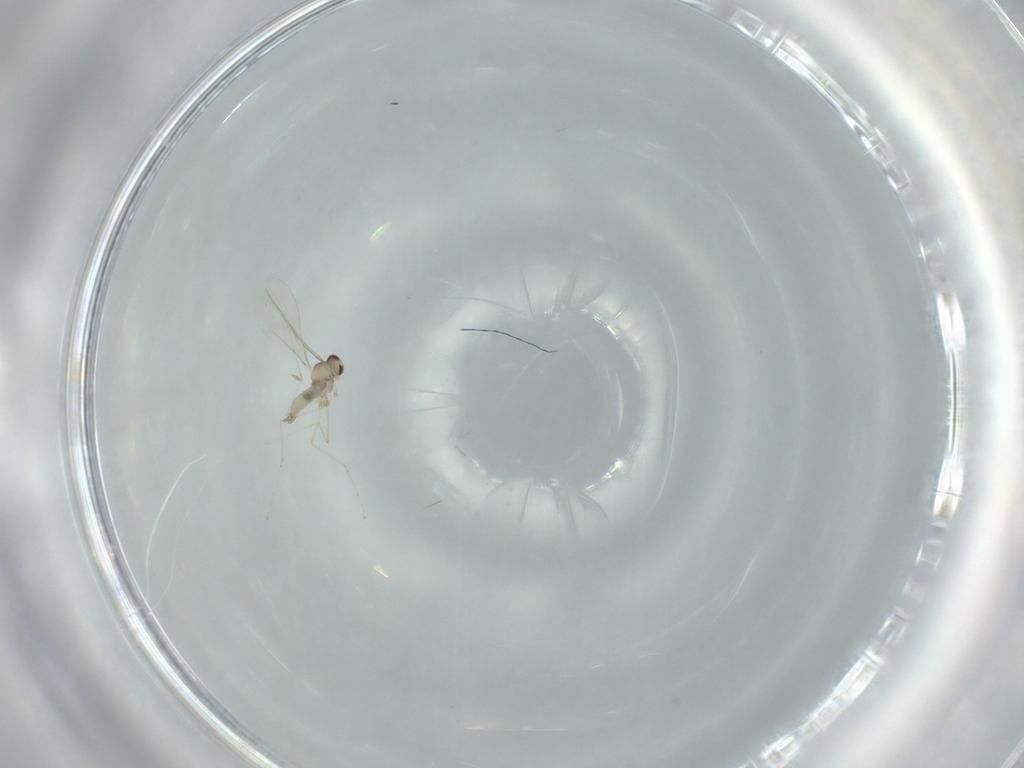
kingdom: Animalia
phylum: Arthropoda
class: Insecta
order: Diptera
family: Cecidomyiidae
